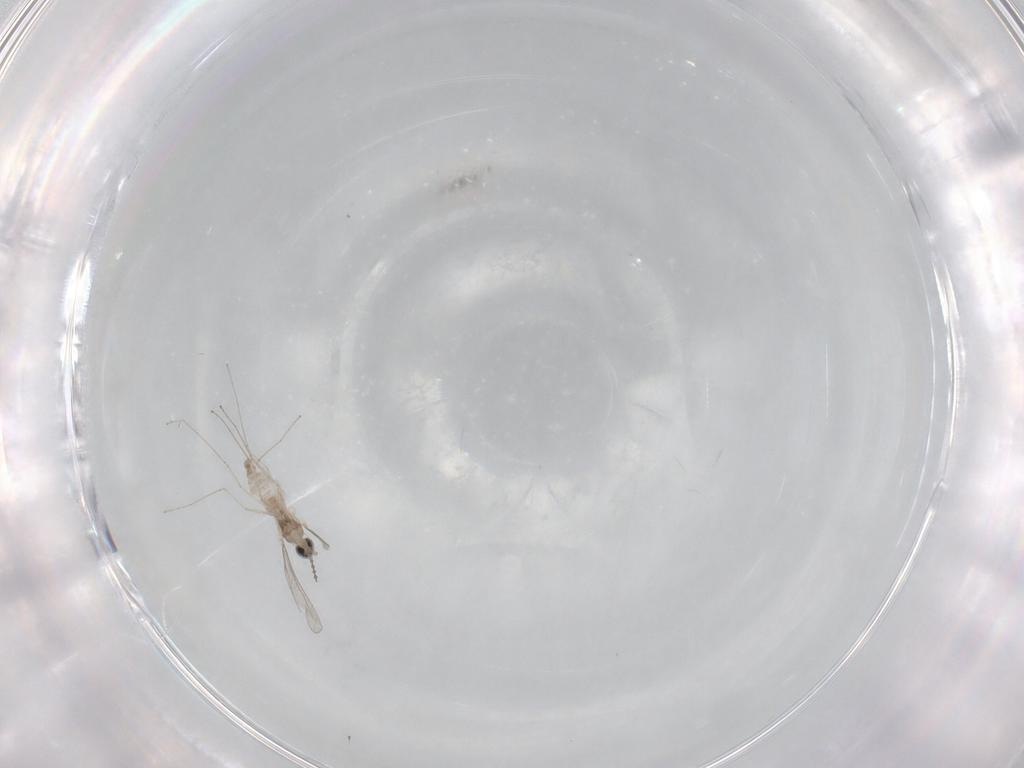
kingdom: Animalia
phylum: Arthropoda
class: Insecta
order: Diptera
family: Cecidomyiidae
